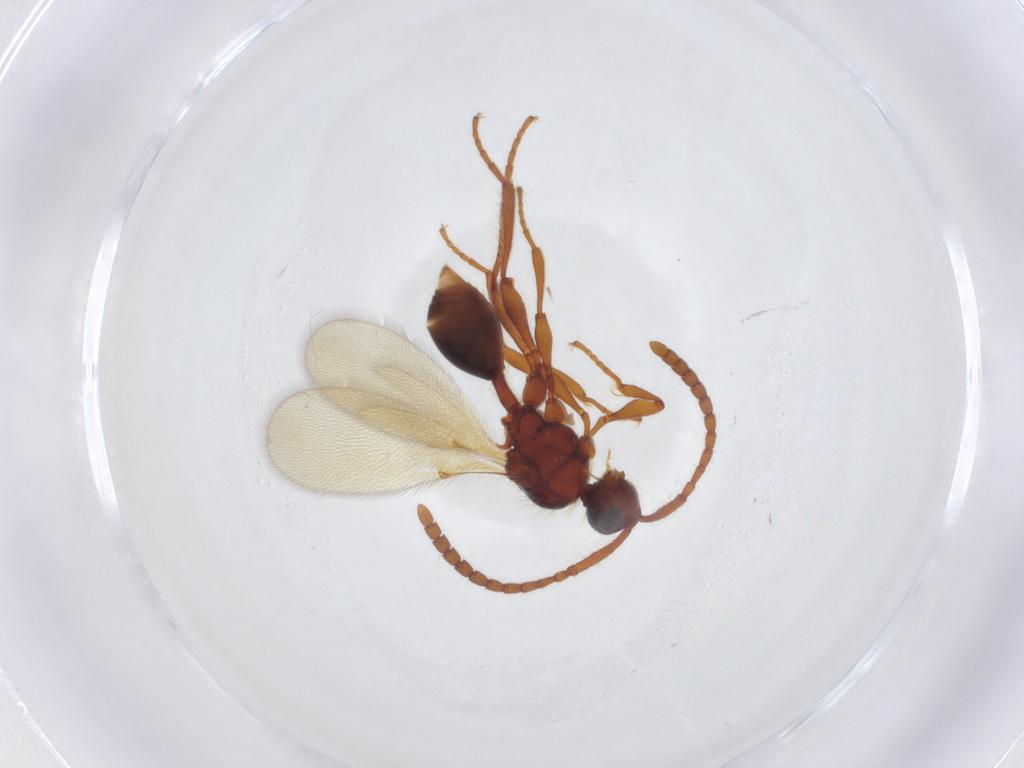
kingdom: Animalia
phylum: Arthropoda
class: Insecta
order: Hymenoptera
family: Diapriidae
